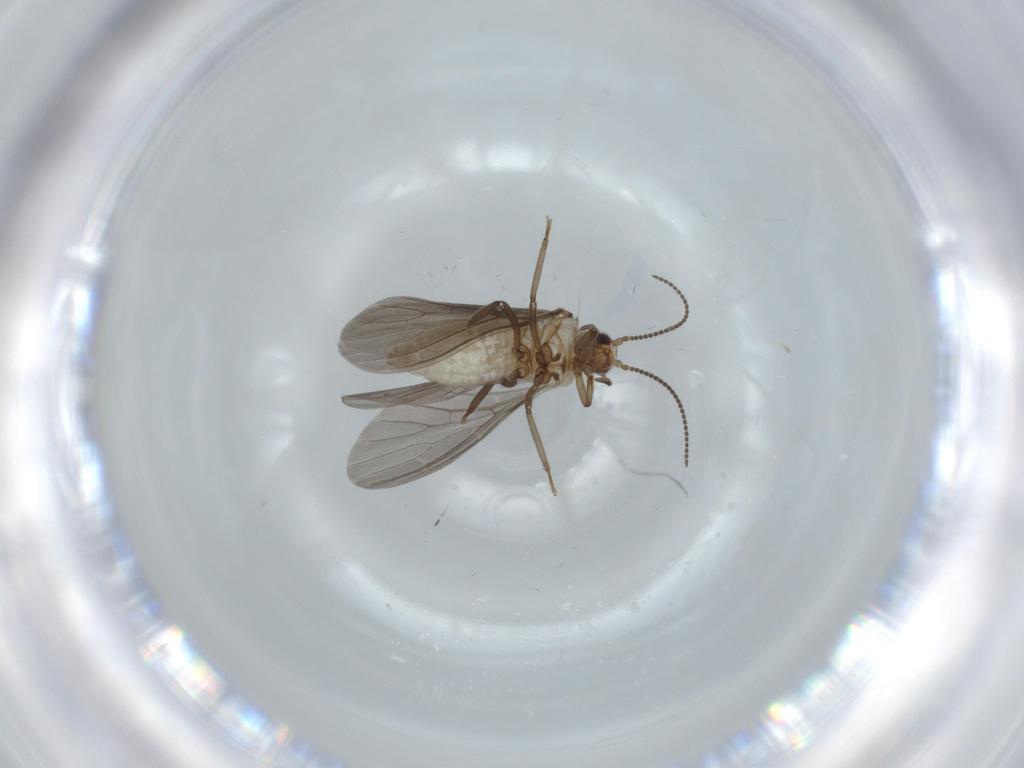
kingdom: Animalia
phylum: Arthropoda
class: Insecta
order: Neuroptera
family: Coniopterygidae
